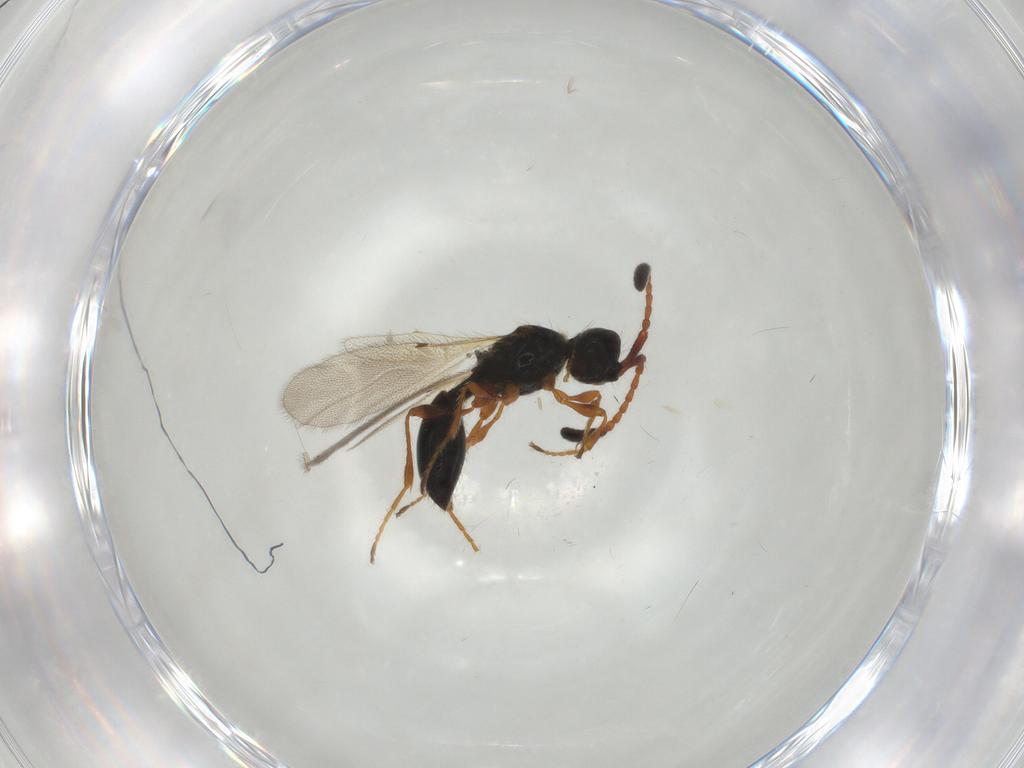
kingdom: Animalia
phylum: Arthropoda
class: Insecta
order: Hymenoptera
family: Diapriidae
